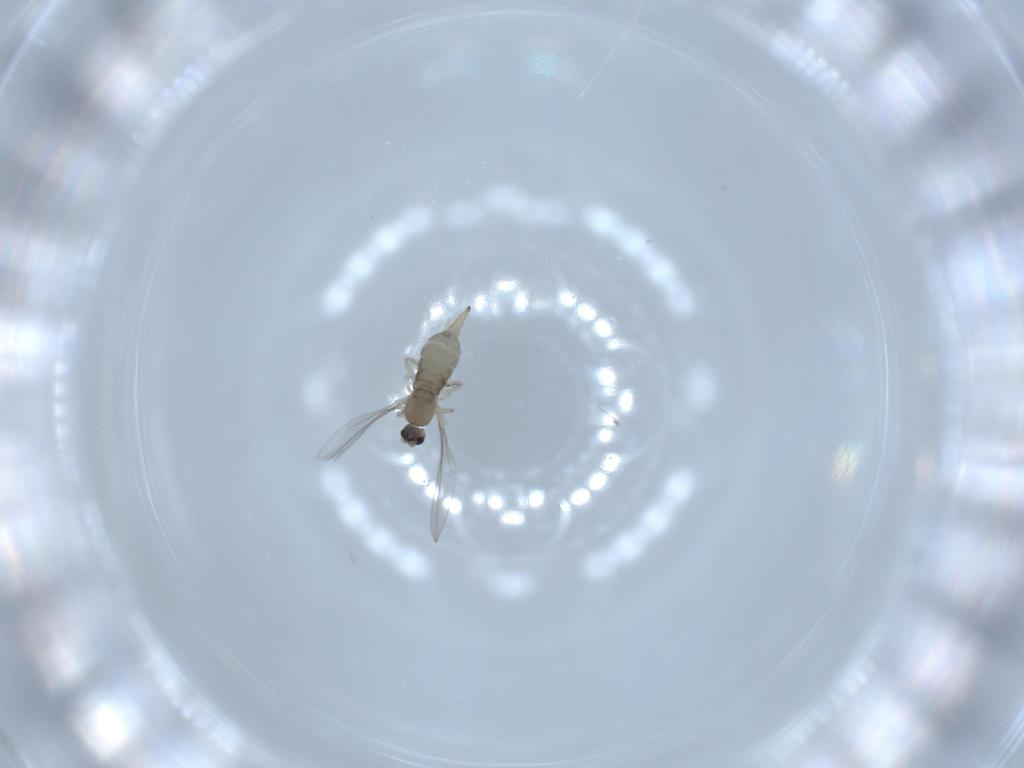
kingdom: Animalia
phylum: Arthropoda
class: Insecta
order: Diptera
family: Cecidomyiidae
